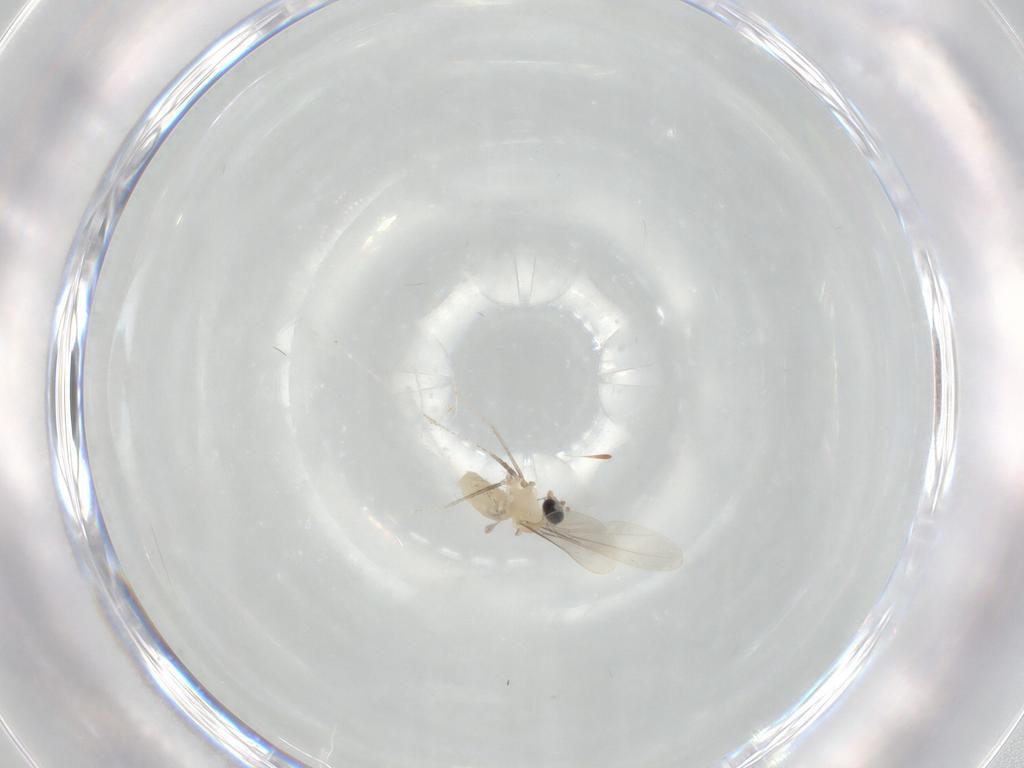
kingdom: Animalia
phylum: Arthropoda
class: Insecta
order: Diptera
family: Cecidomyiidae
